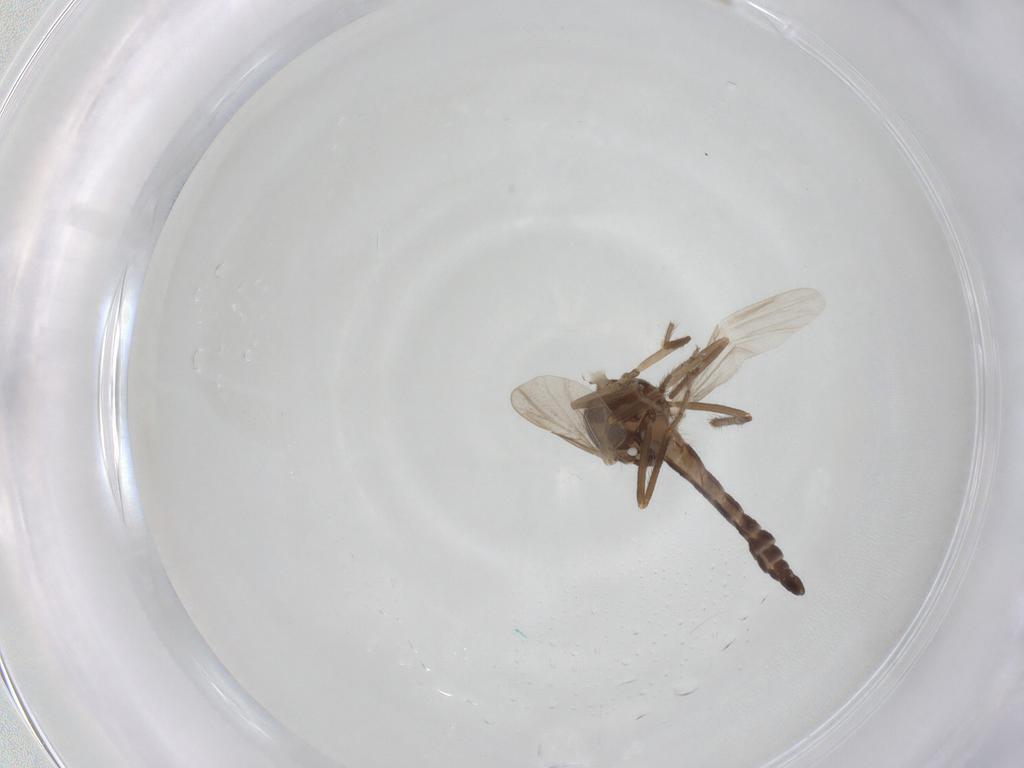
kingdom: Animalia
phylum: Arthropoda
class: Insecta
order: Diptera
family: Ceratopogonidae
